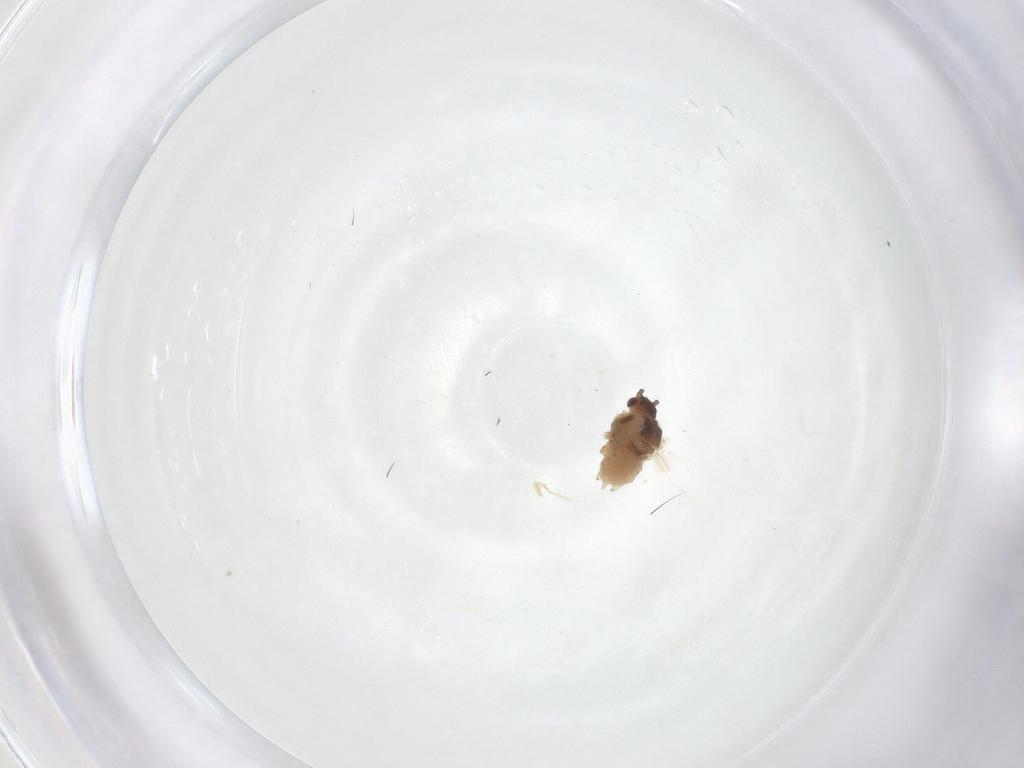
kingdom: Animalia
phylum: Arthropoda
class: Insecta
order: Hemiptera
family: Aphididae
